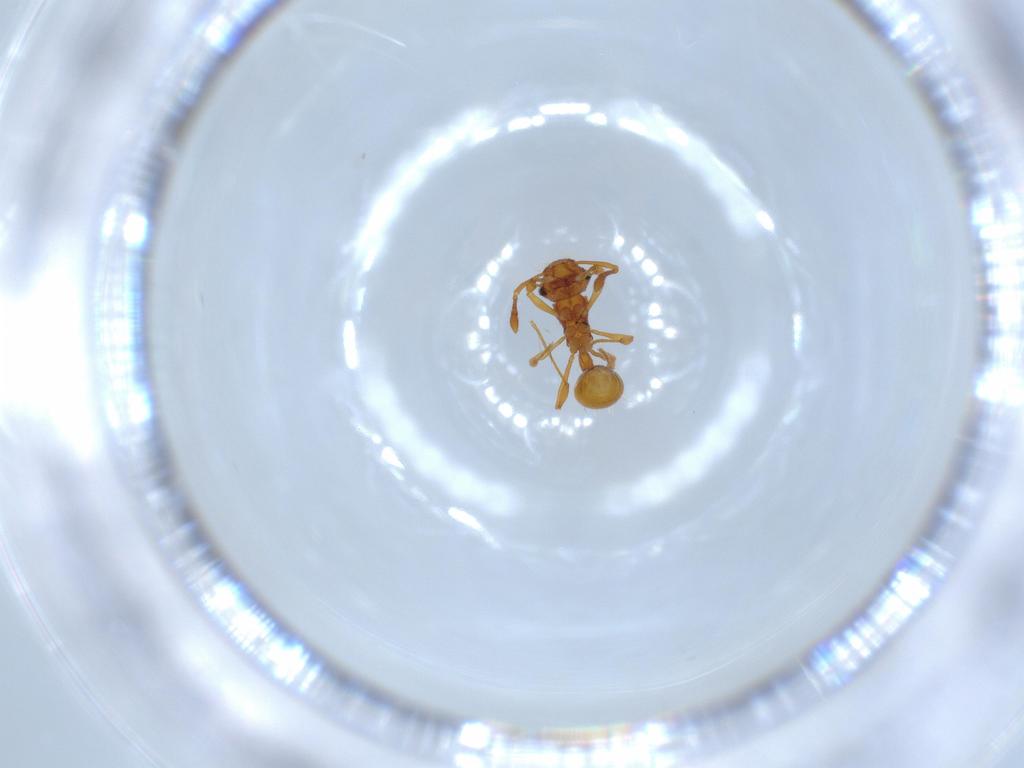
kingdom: Animalia
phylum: Arthropoda
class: Insecta
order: Hymenoptera
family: Formicidae
